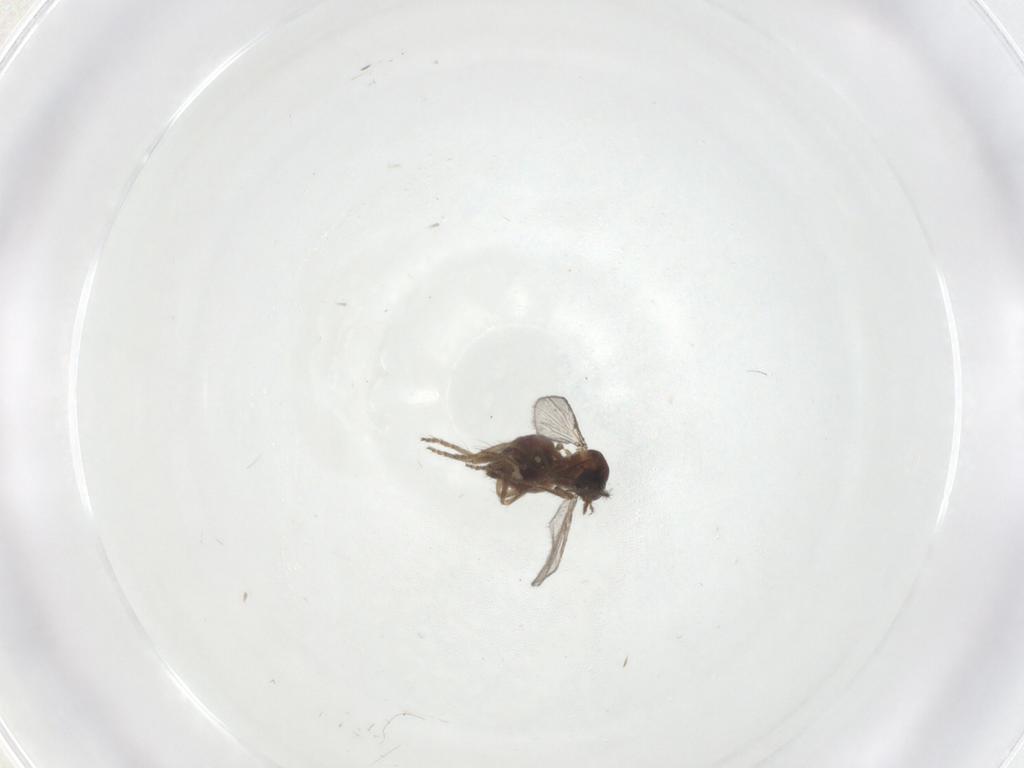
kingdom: Animalia
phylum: Arthropoda
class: Insecta
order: Diptera
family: Ceratopogonidae
